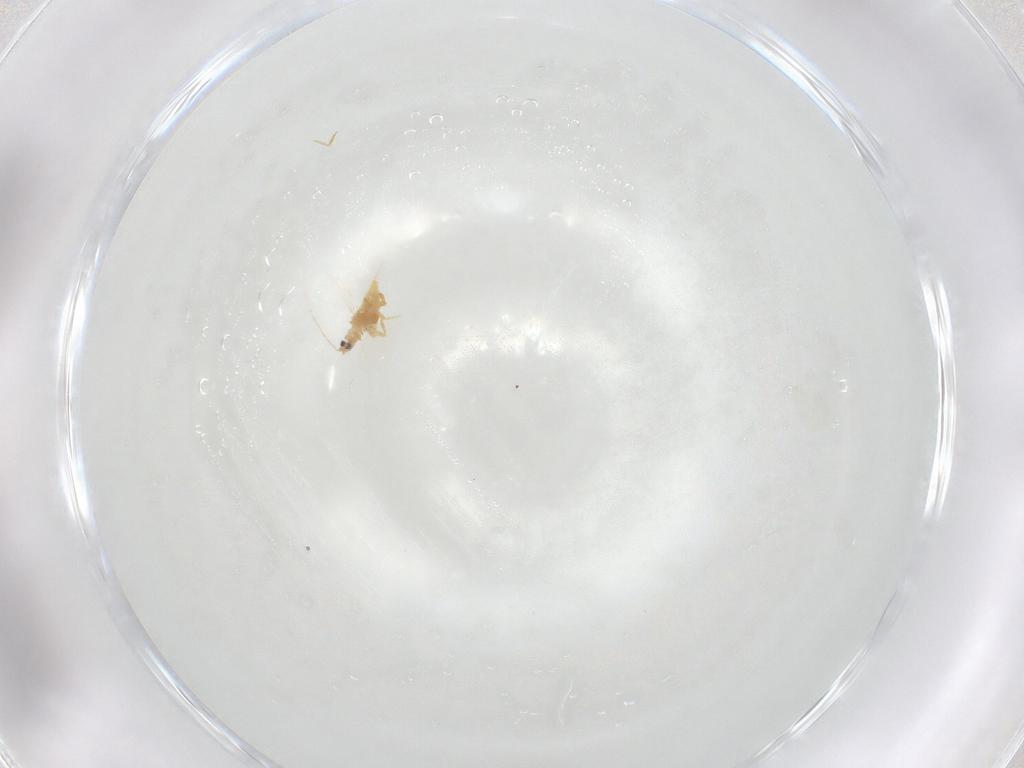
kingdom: Animalia
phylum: Arthropoda
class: Insecta
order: Diptera
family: Cecidomyiidae
